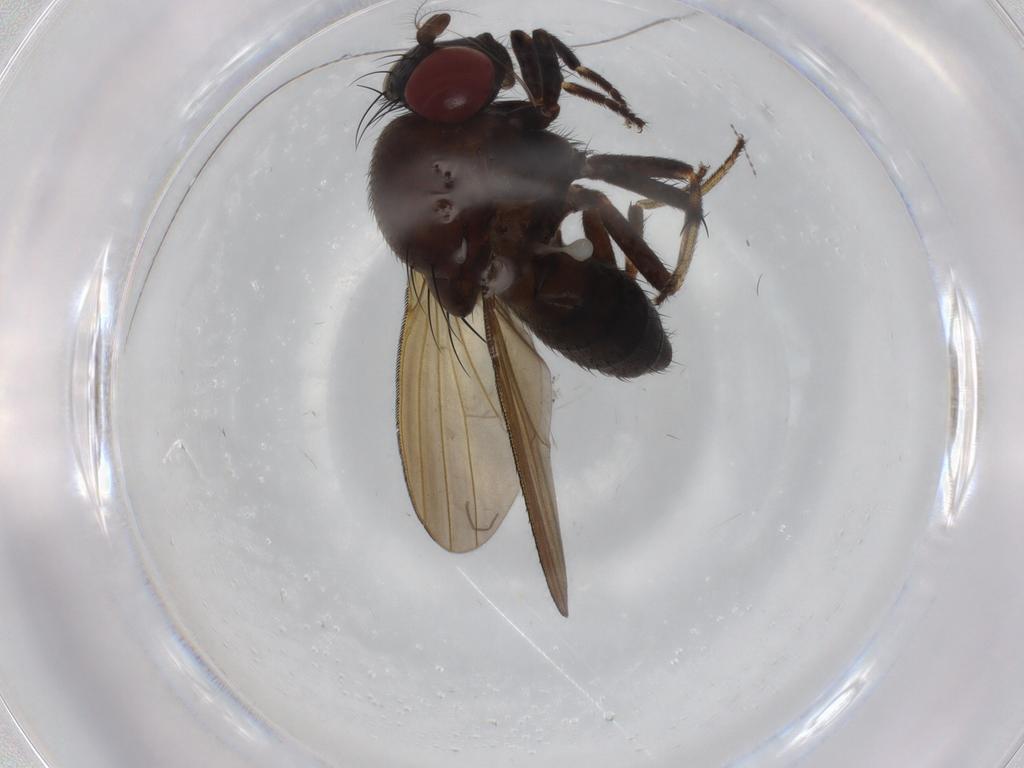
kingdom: Animalia
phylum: Arthropoda
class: Insecta
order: Diptera
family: Lauxaniidae
